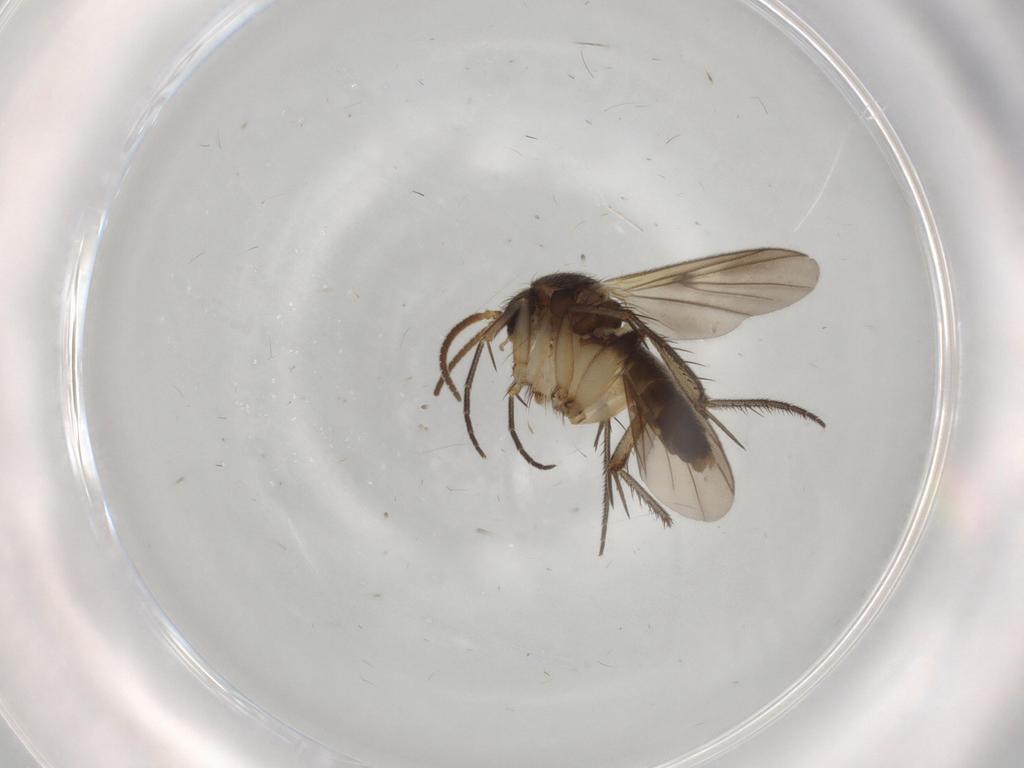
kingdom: Animalia
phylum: Arthropoda
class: Insecta
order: Diptera
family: Mycetophilidae
